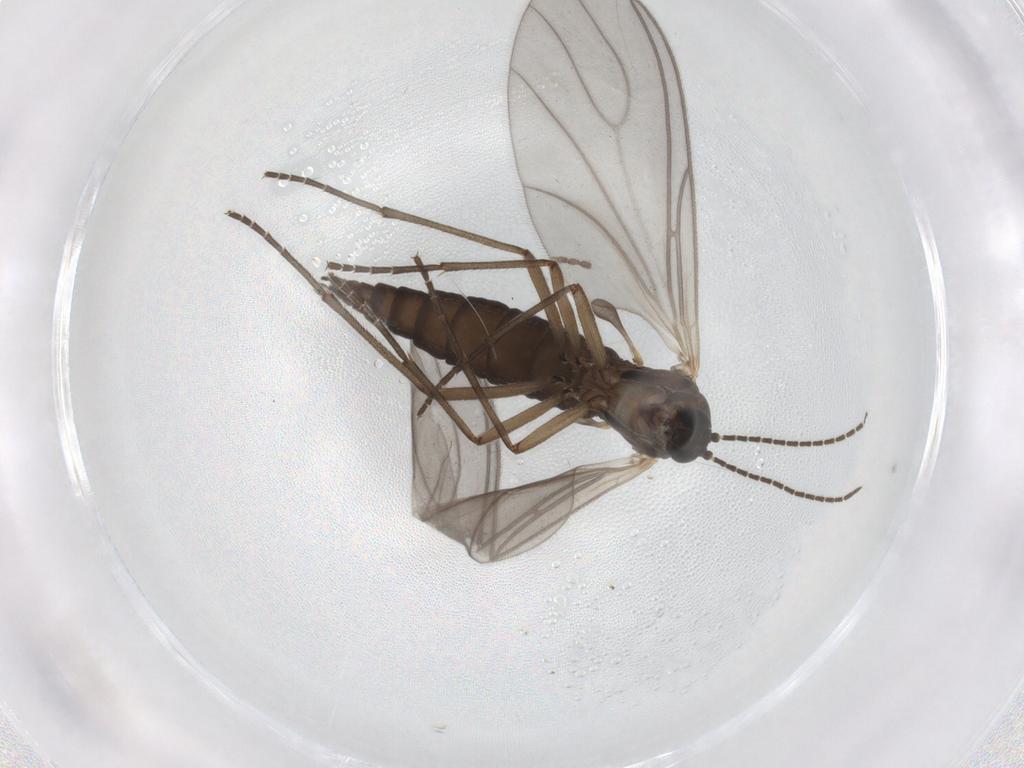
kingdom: Animalia
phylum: Arthropoda
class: Insecta
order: Diptera
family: Sciaridae
